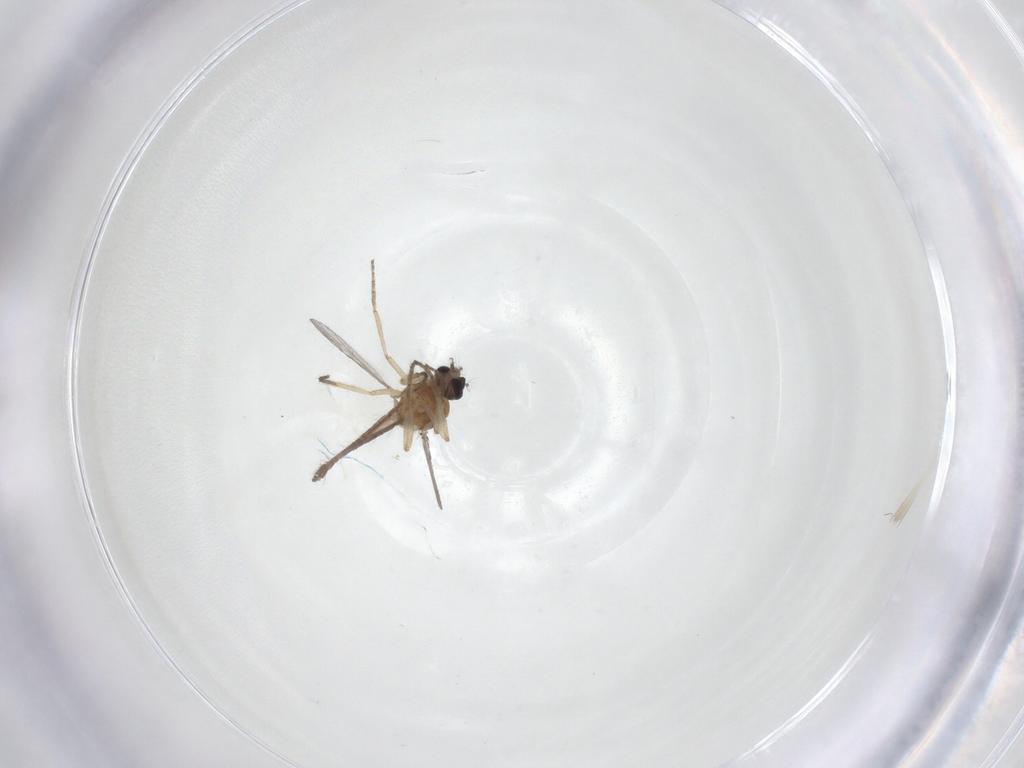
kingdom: Animalia
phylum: Arthropoda
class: Insecta
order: Diptera
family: Ceratopogonidae
